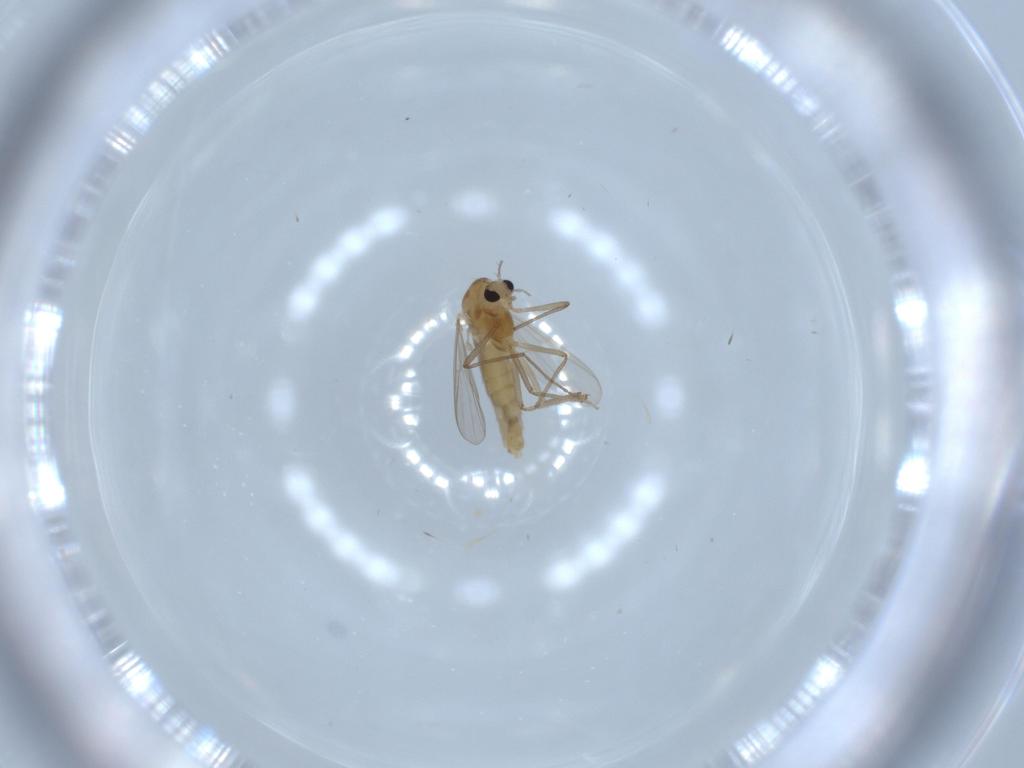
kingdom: Animalia
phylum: Arthropoda
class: Insecta
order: Diptera
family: Chironomidae
